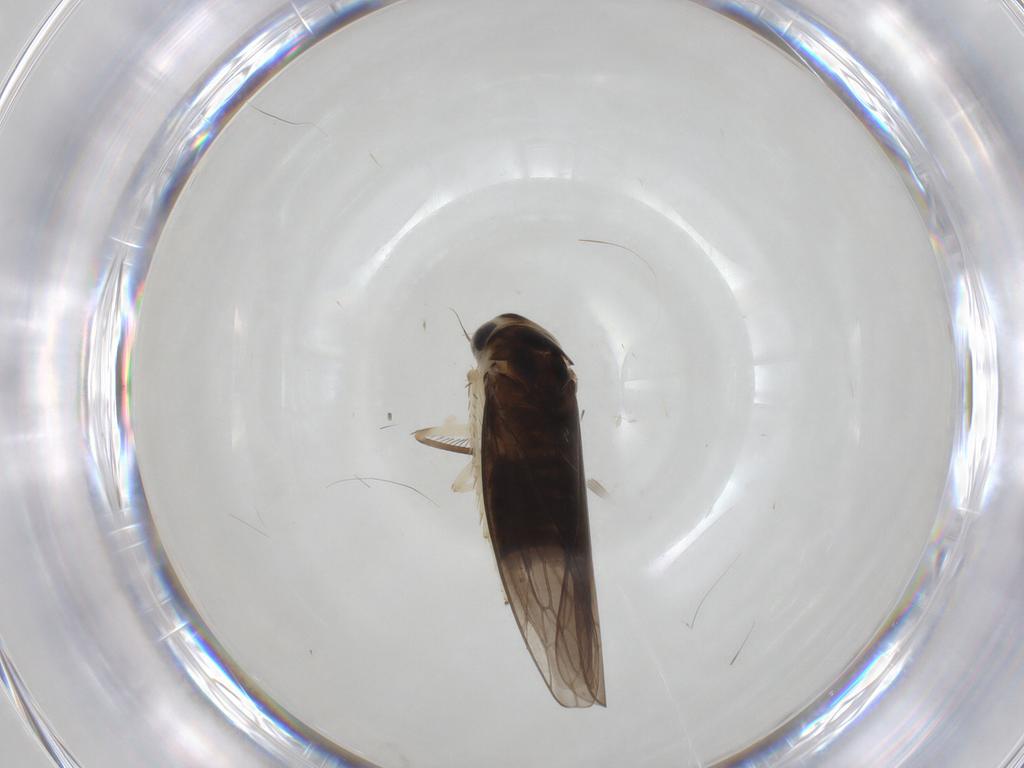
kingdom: Animalia
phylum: Arthropoda
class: Insecta
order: Hemiptera
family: Cicadellidae
